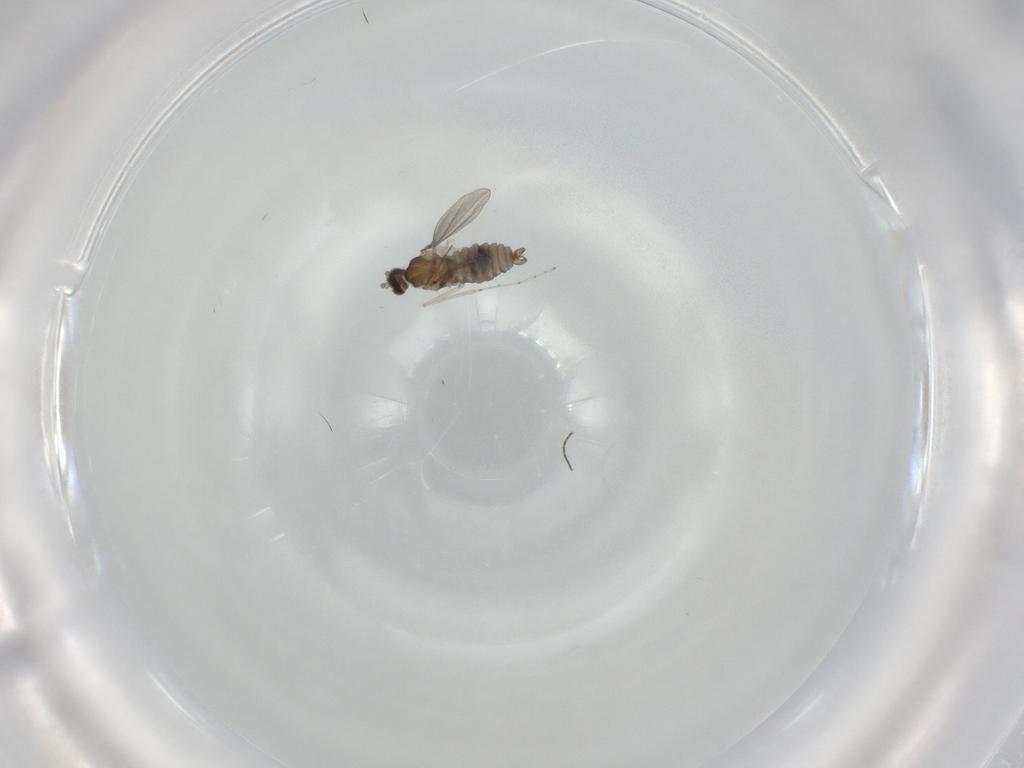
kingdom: Animalia
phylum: Arthropoda
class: Insecta
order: Diptera
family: Chironomidae
